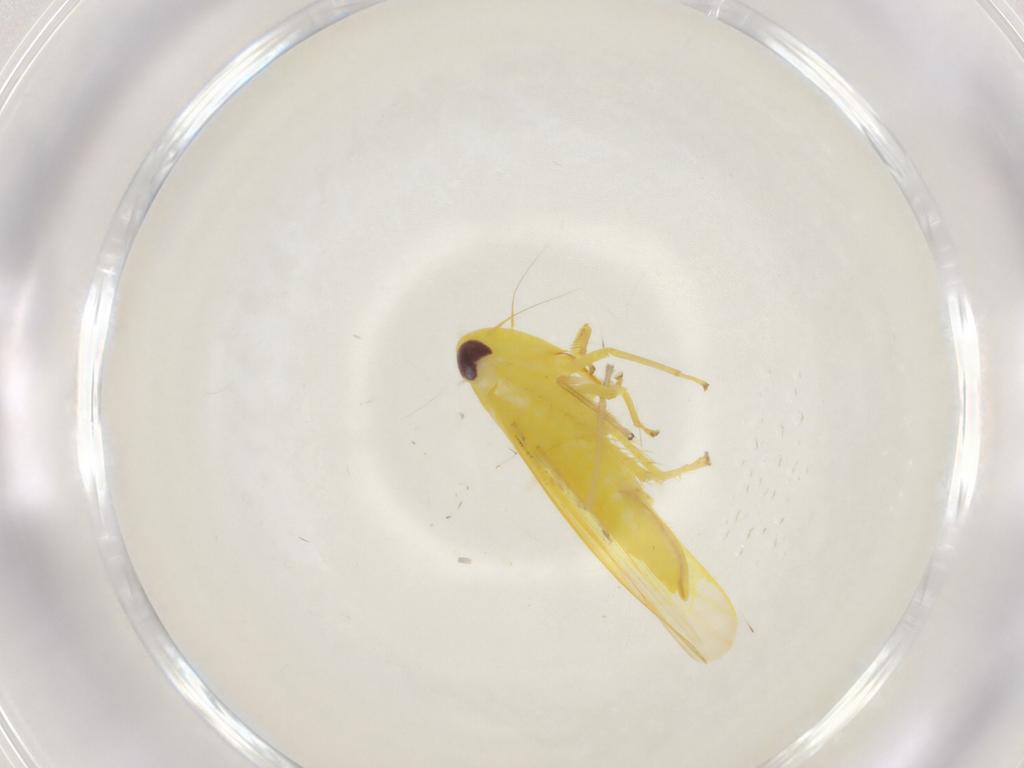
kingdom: Animalia
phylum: Arthropoda
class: Insecta
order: Hemiptera
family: Cicadellidae
